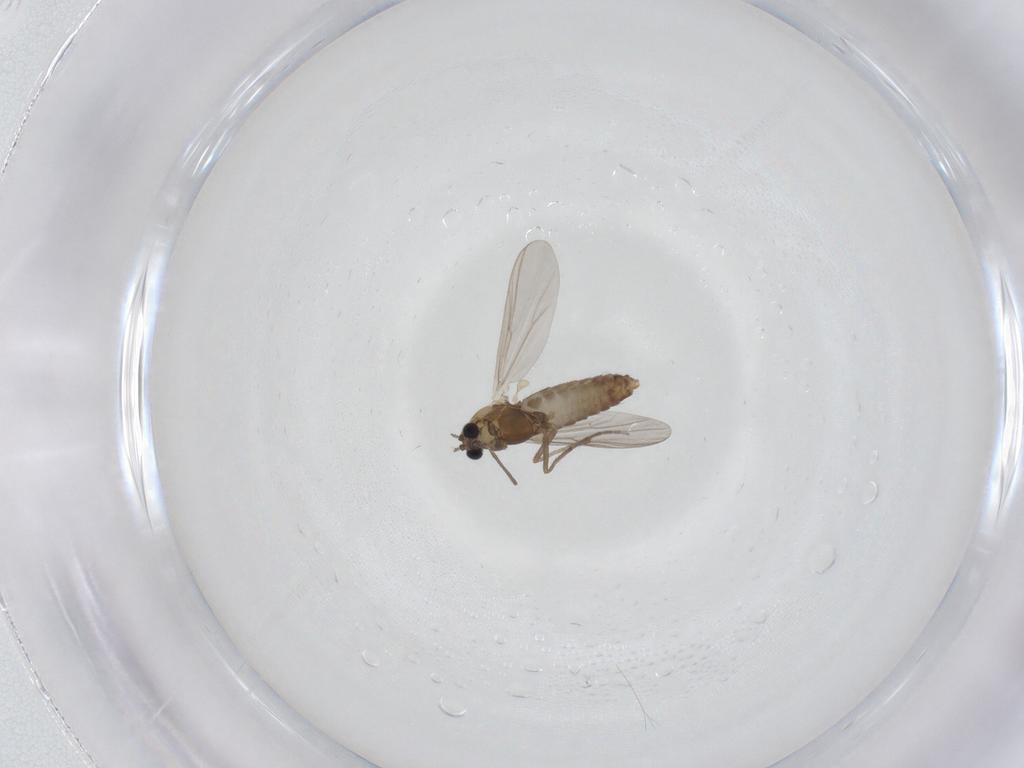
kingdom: Animalia
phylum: Arthropoda
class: Insecta
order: Diptera
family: Chironomidae
